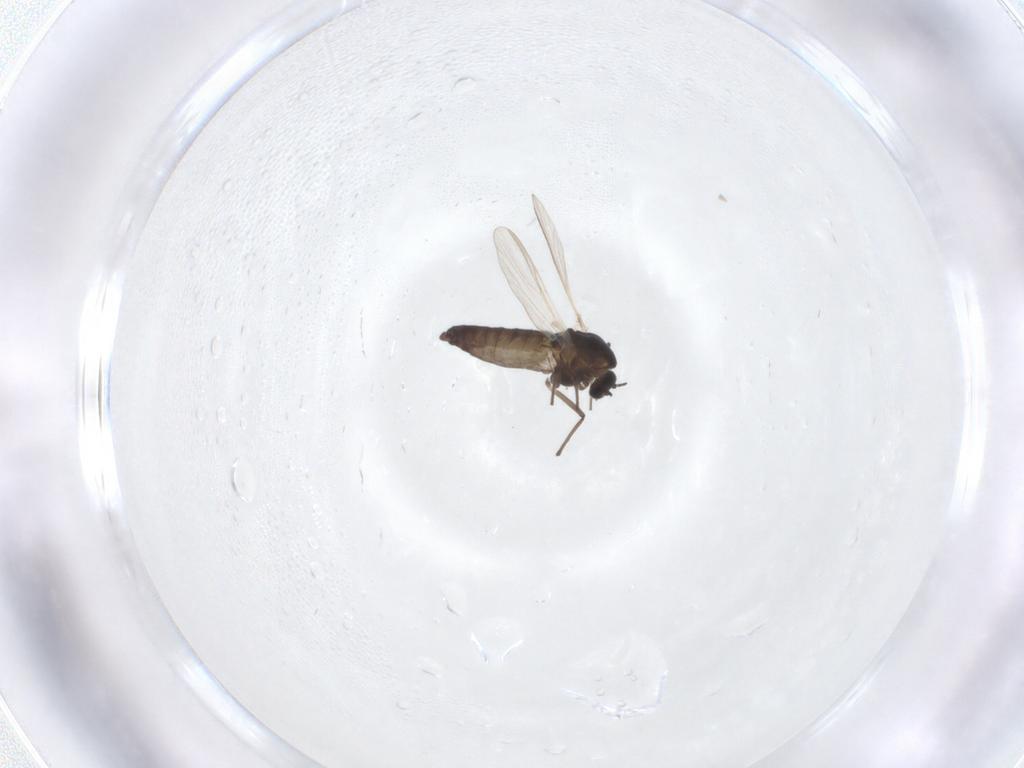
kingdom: Animalia
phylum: Arthropoda
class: Insecta
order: Diptera
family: Chironomidae
